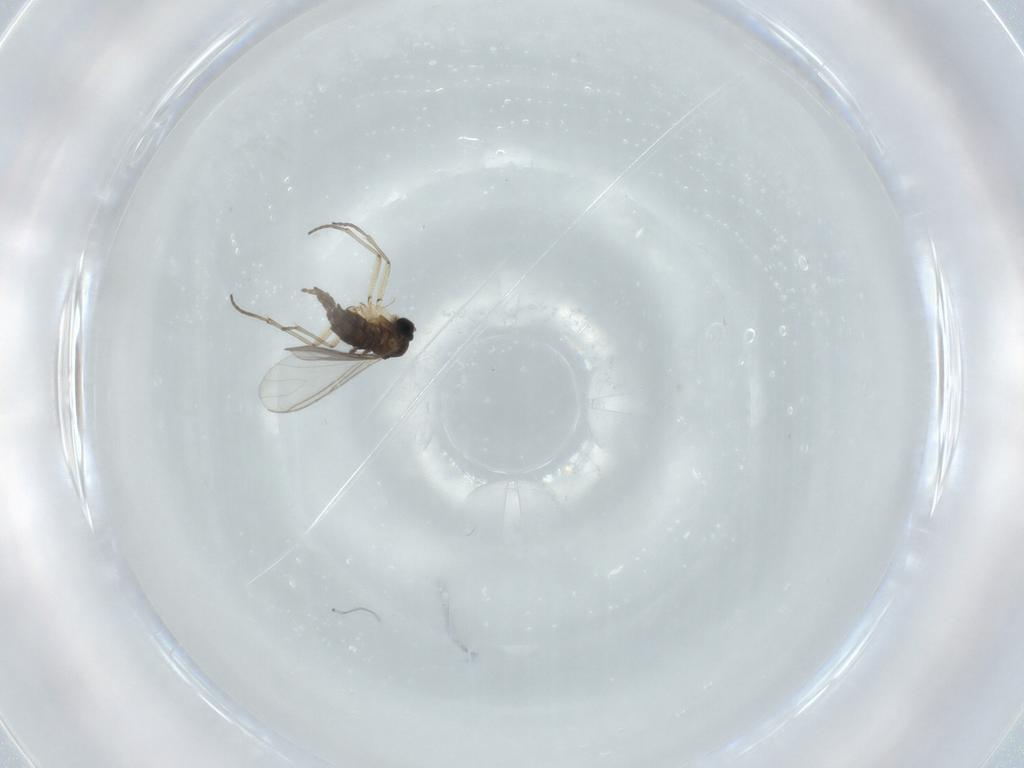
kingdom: Animalia
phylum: Arthropoda
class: Insecta
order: Diptera
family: Sciaridae
